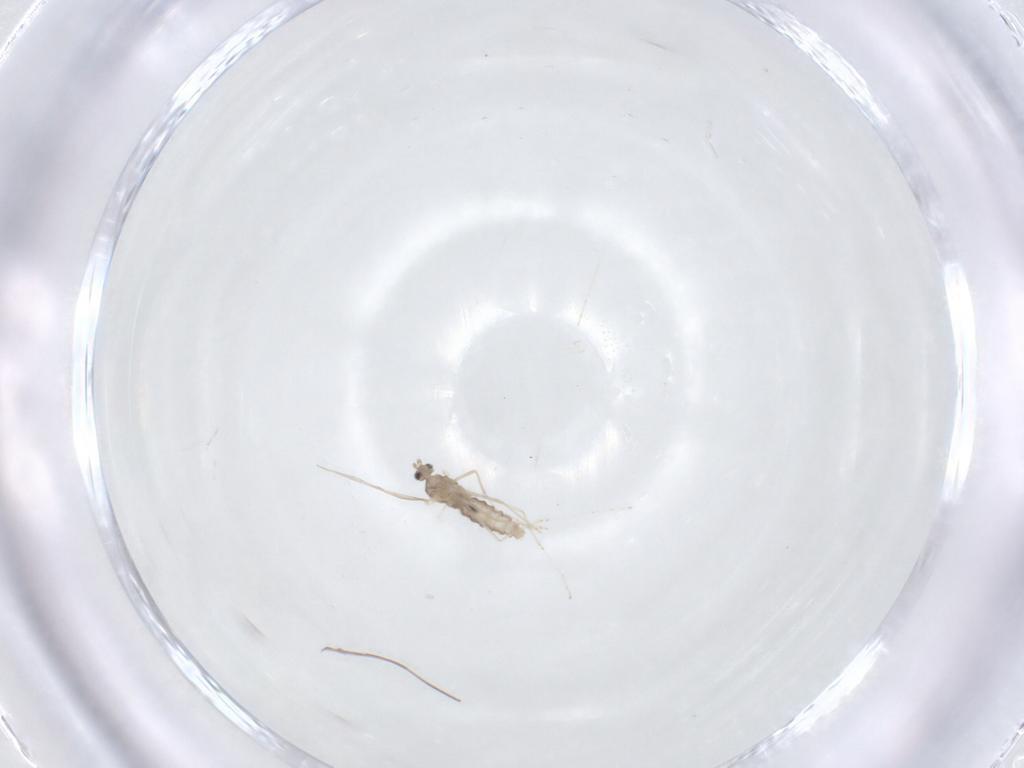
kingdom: Animalia
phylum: Arthropoda
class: Insecta
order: Diptera
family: Cecidomyiidae
